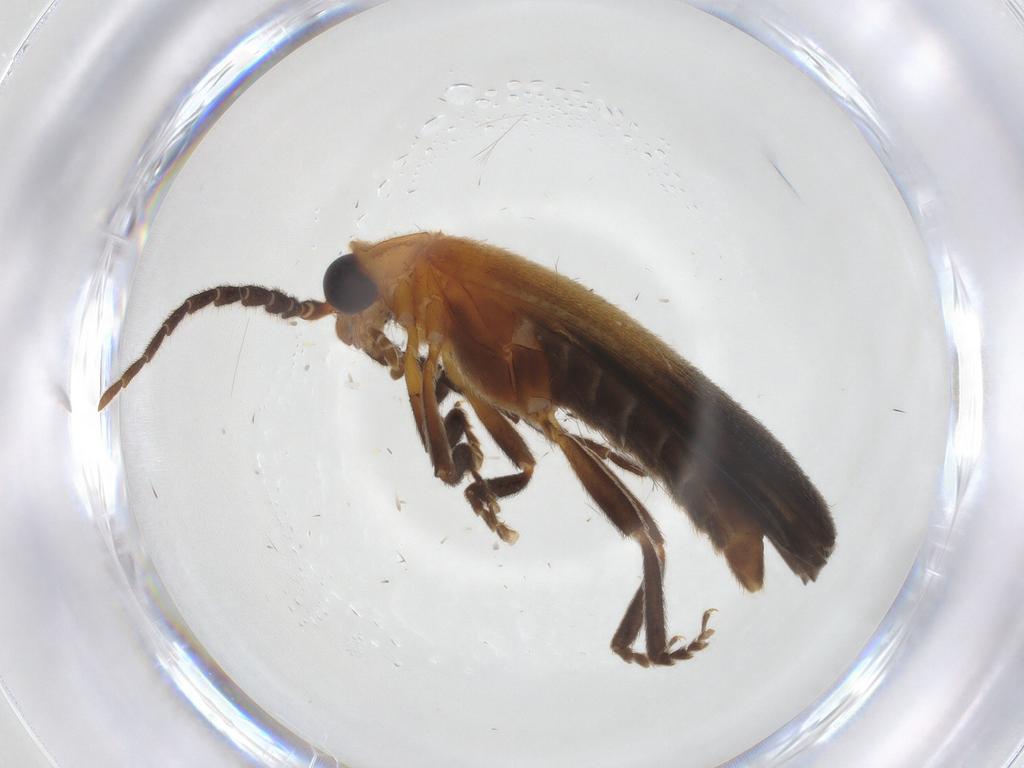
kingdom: Animalia
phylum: Arthropoda
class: Insecta
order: Coleoptera
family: Lycidae
